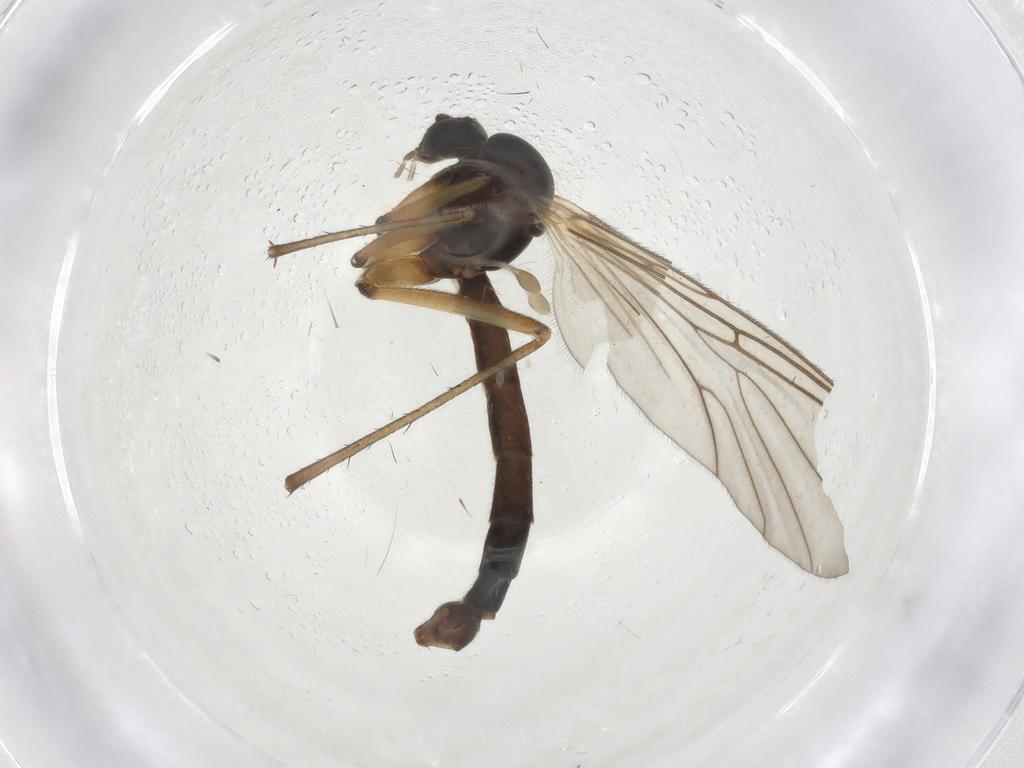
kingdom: Animalia
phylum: Arthropoda
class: Insecta
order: Diptera
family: Mycetophilidae
